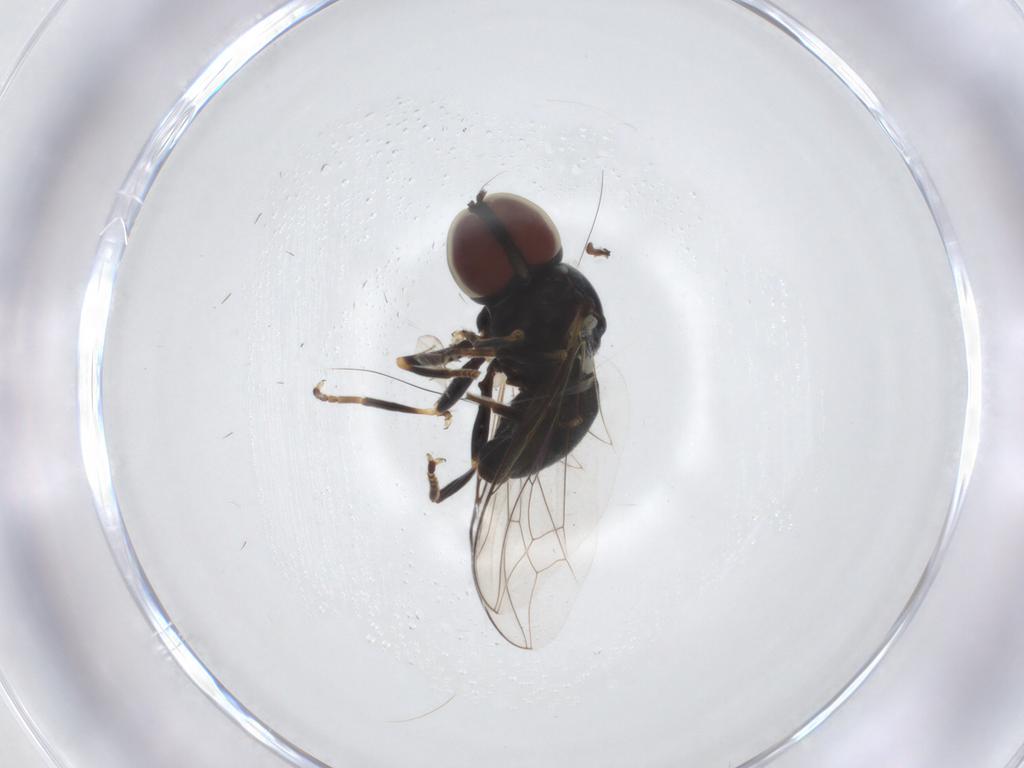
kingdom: Animalia
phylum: Arthropoda
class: Insecta
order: Diptera
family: Pipunculidae
